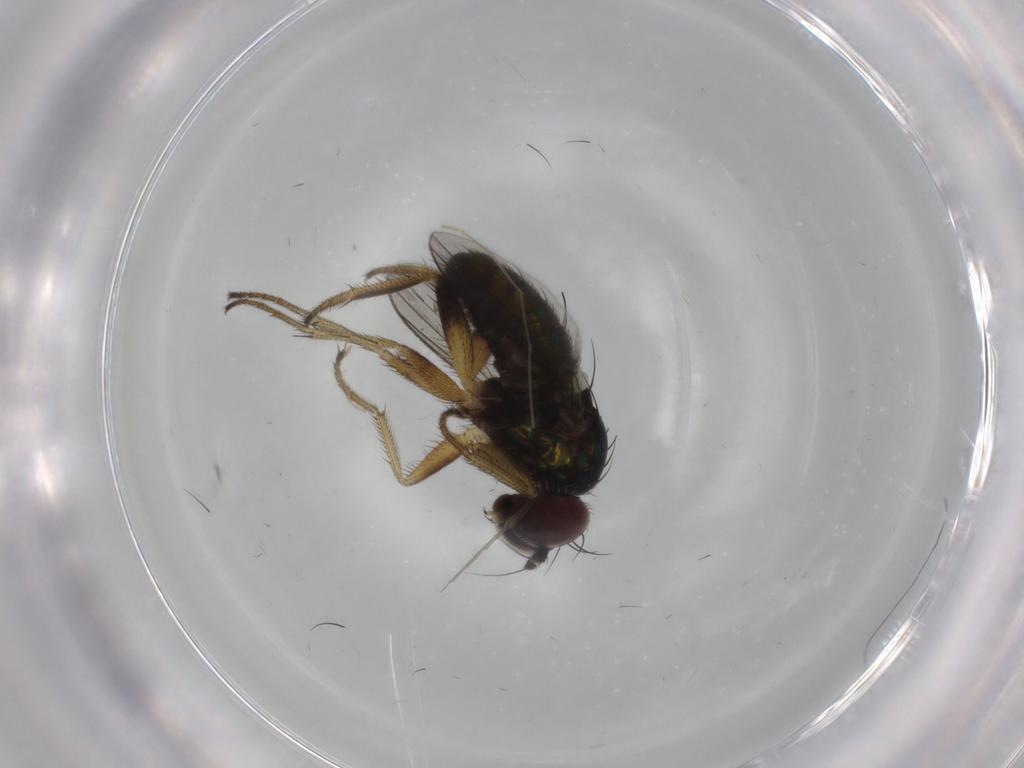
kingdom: Animalia
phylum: Arthropoda
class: Insecta
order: Diptera
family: Dolichopodidae
